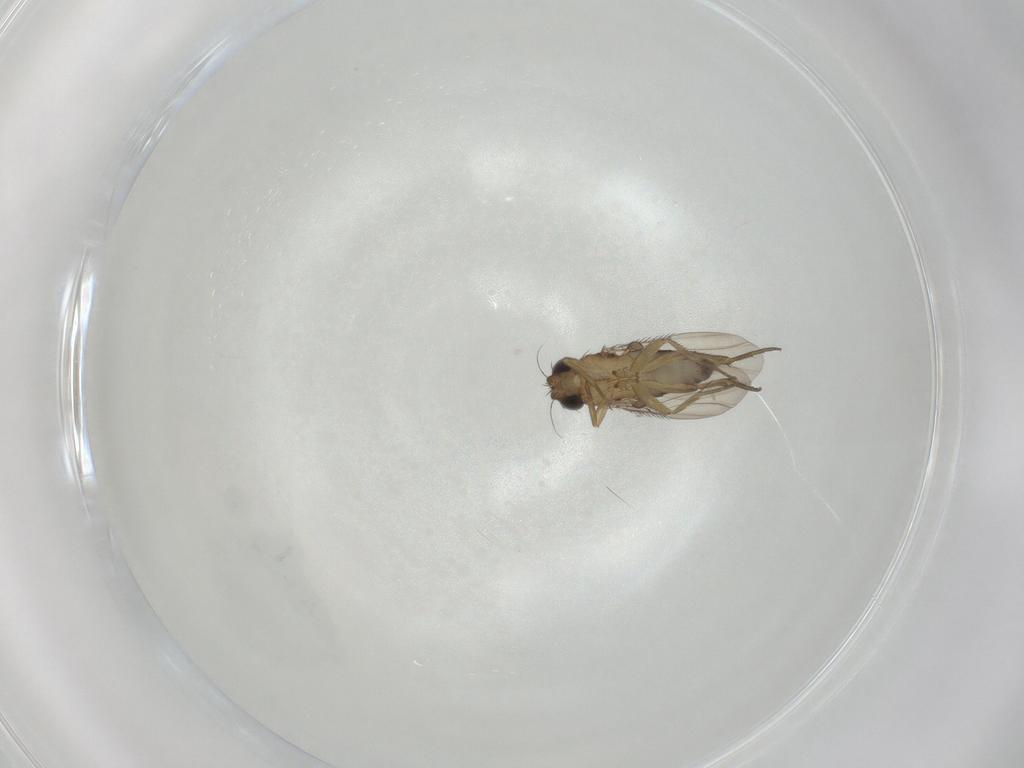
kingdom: Animalia
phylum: Arthropoda
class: Insecta
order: Diptera
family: Phoridae
